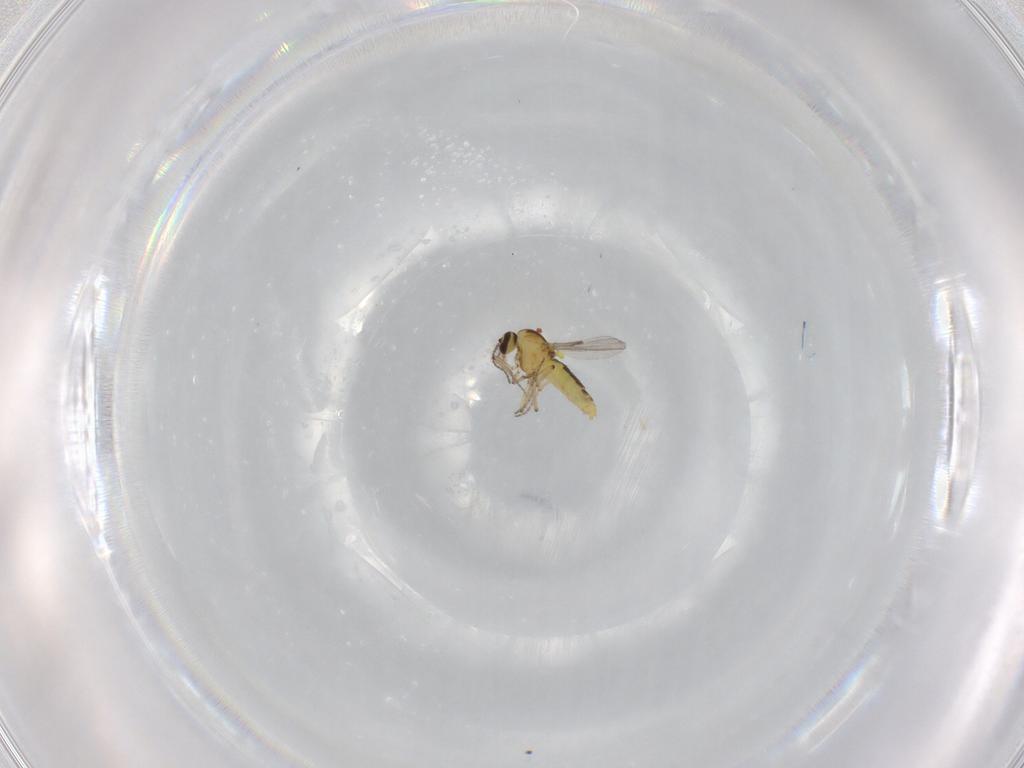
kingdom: Animalia
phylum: Arthropoda
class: Insecta
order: Diptera
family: Ceratopogonidae
